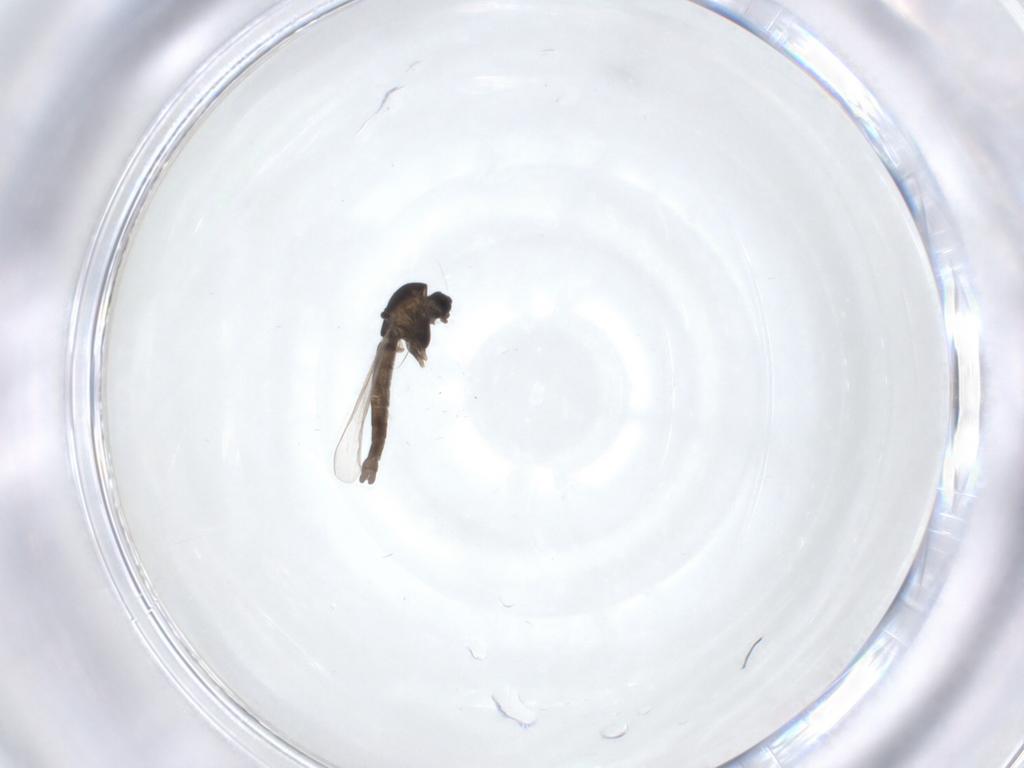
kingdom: Animalia
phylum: Arthropoda
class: Insecta
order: Diptera
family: Chironomidae
